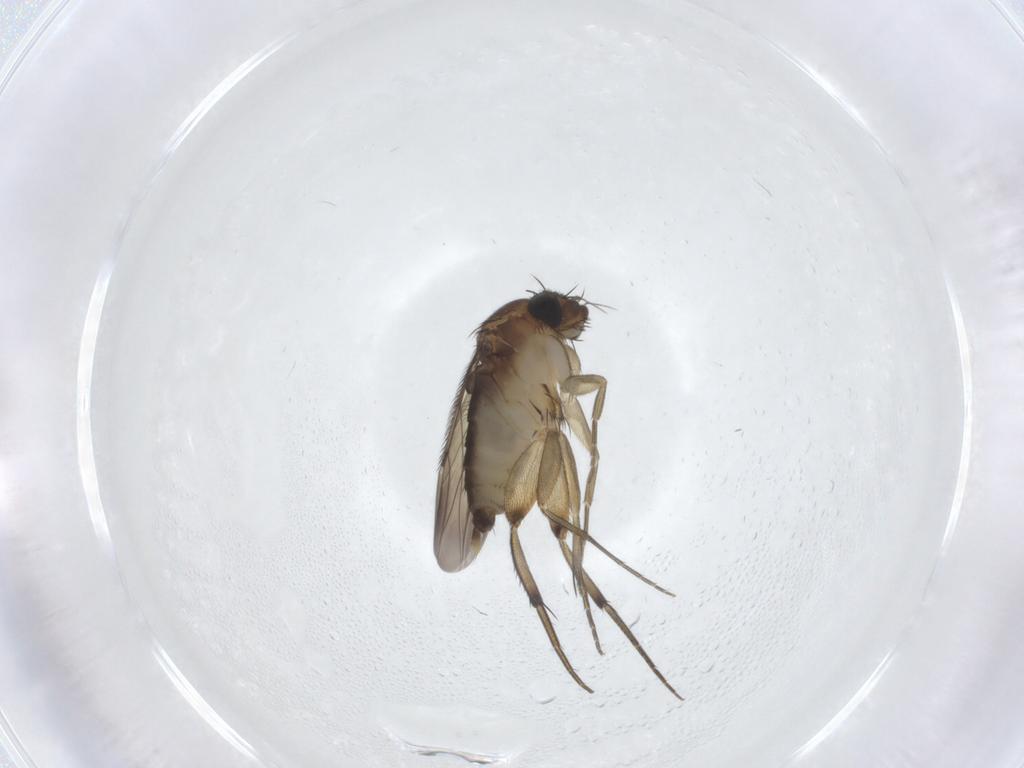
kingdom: Animalia
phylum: Arthropoda
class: Insecta
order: Diptera
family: Phoridae
